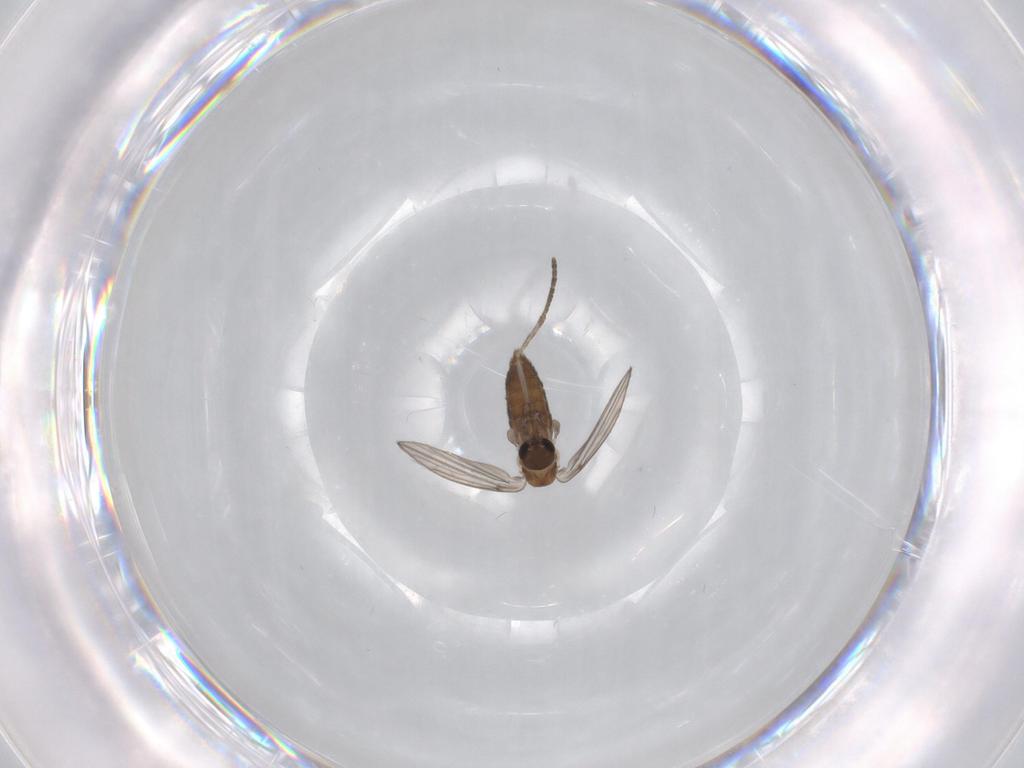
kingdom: Animalia
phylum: Arthropoda
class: Insecta
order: Diptera
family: Psychodidae
